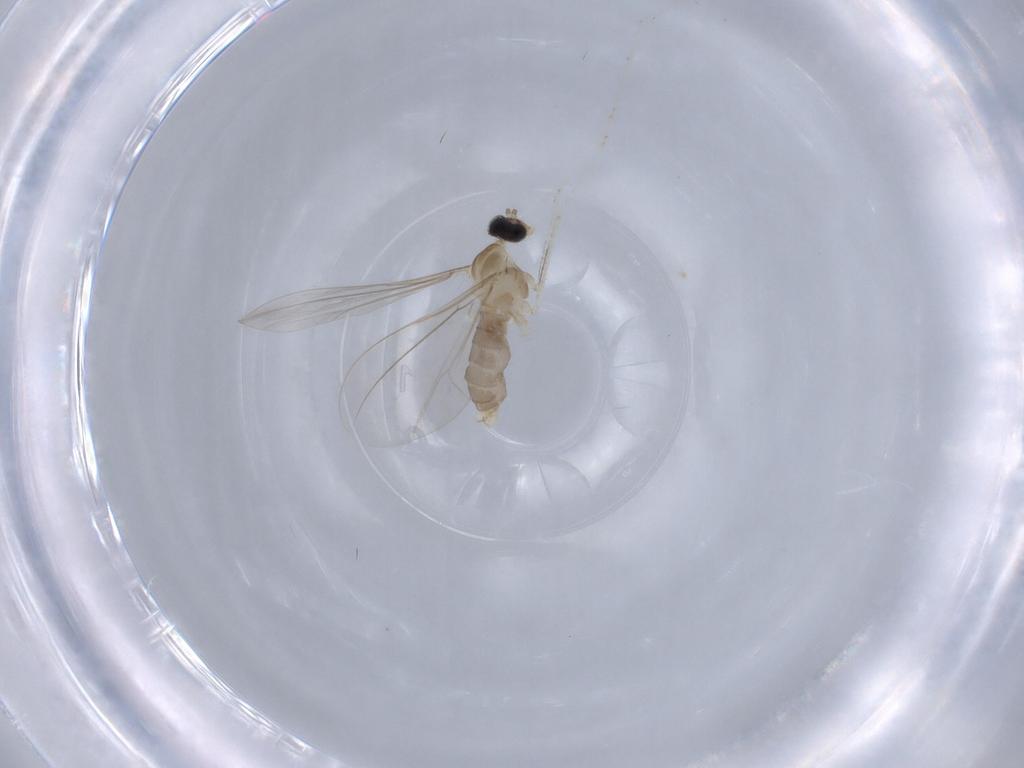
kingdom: Animalia
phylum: Arthropoda
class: Insecta
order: Diptera
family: Cecidomyiidae
